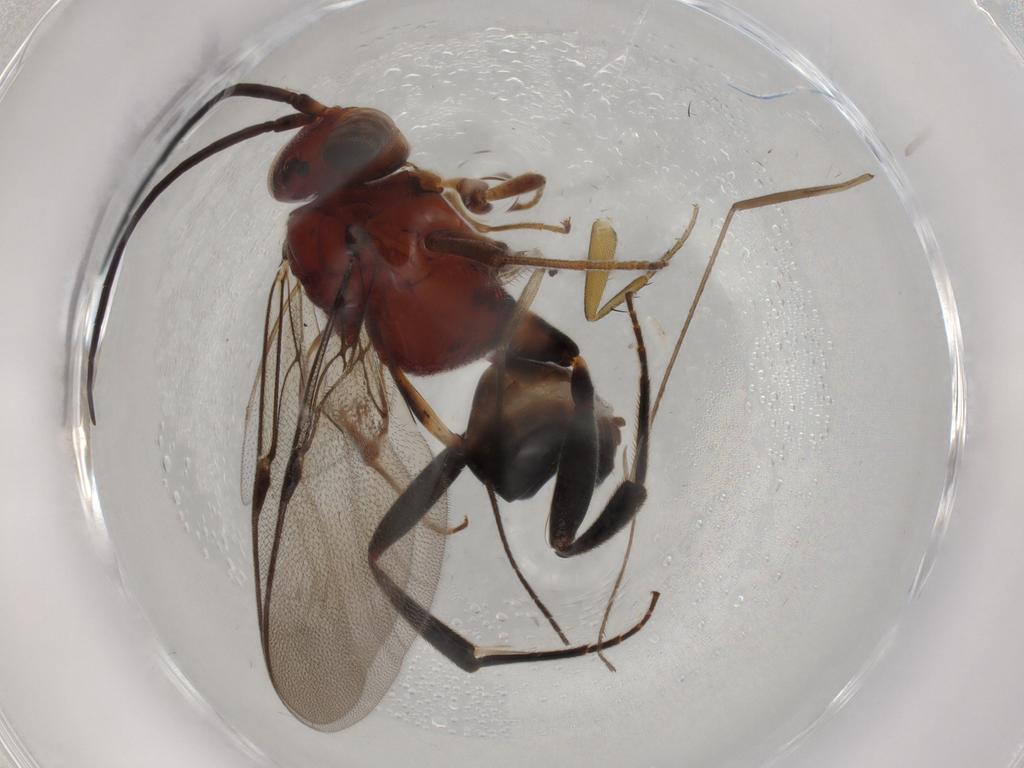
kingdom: Animalia
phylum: Arthropoda
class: Insecta
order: Hymenoptera
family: Evaniidae
